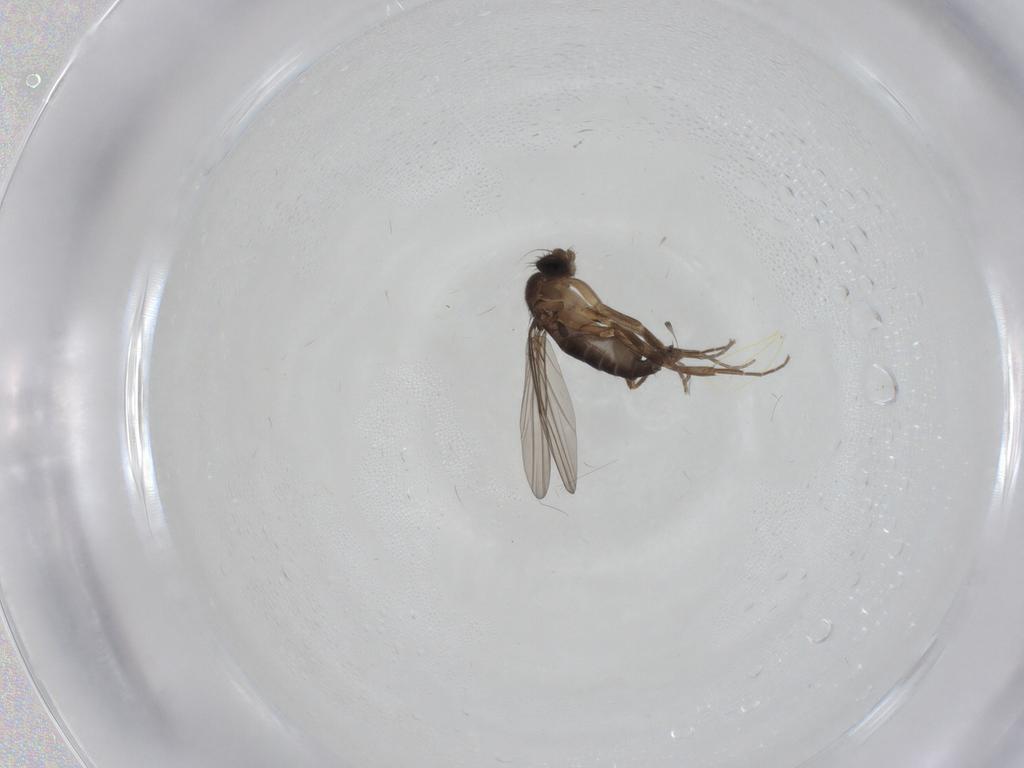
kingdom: Animalia
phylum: Arthropoda
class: Insecta
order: Diptera
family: Phoridae
